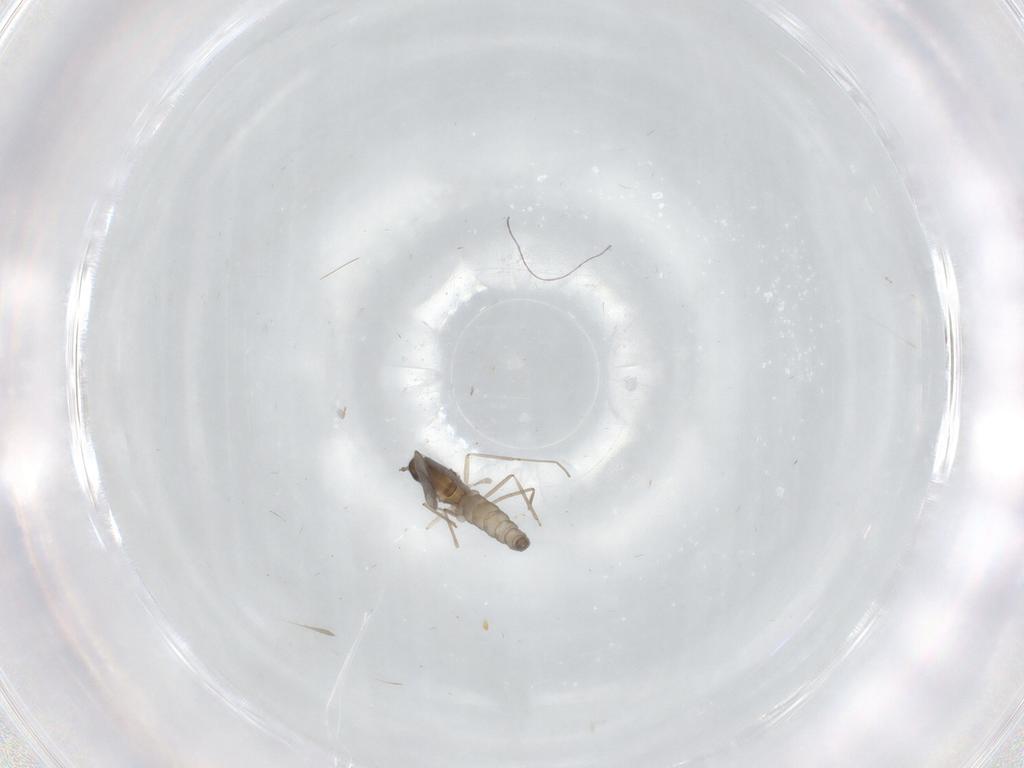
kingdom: Animalia
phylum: Arthropoda
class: Insecta
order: Diptera
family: Cecidomyiidae
